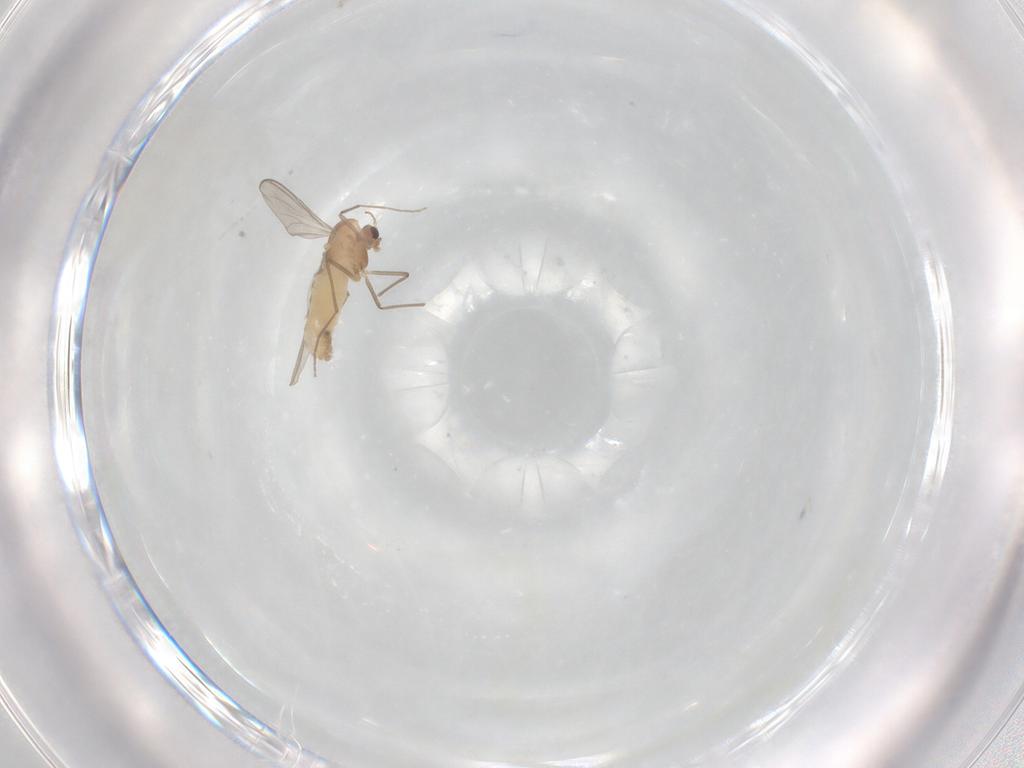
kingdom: Animalia
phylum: Arthropoda
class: Insecta
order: Diptera
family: Chironomidae
